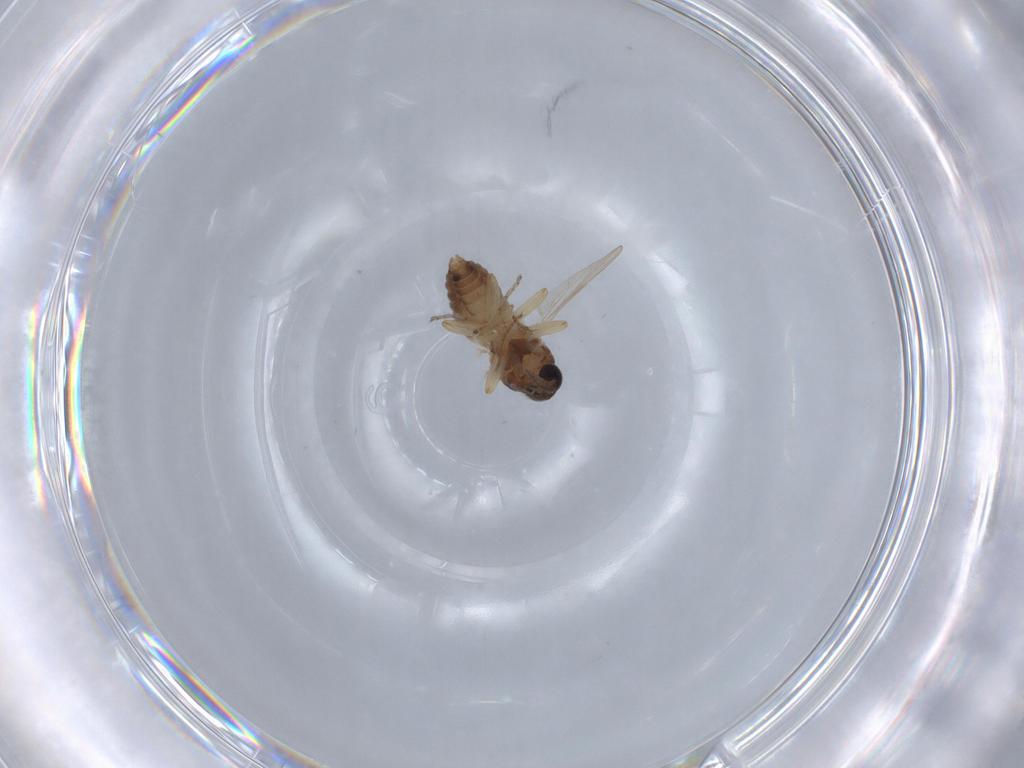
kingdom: Animalia
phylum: Arthropoda
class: Insecta
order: Diptera
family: Ceratopogonidae
